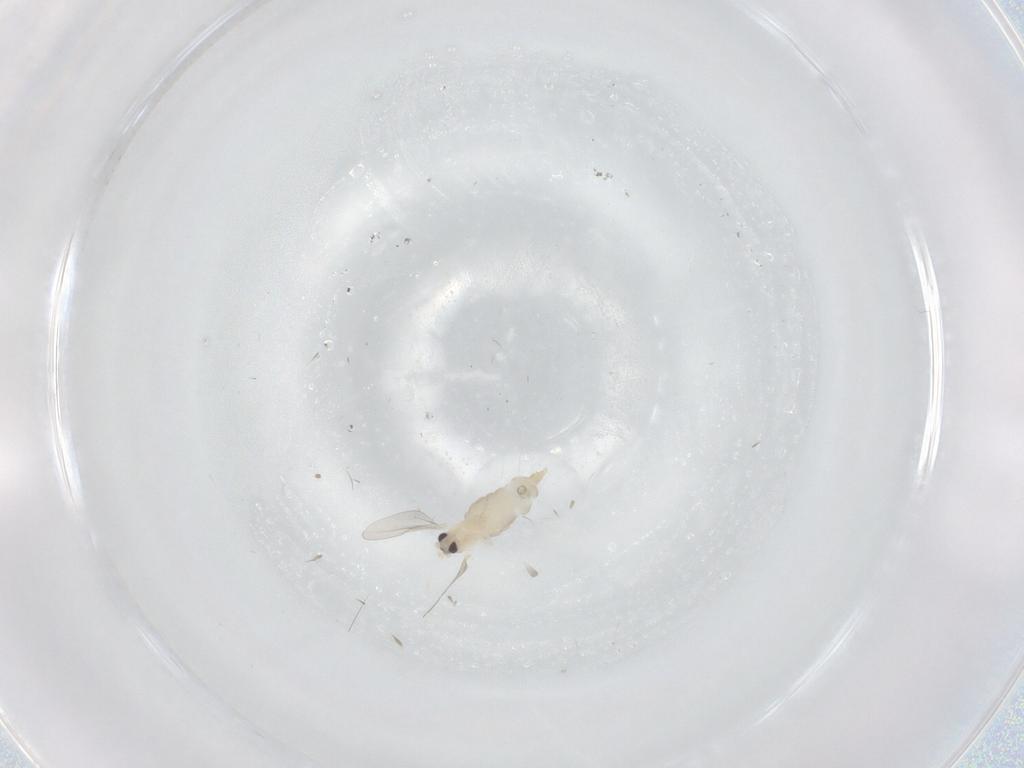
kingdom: Animalia
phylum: Arthropoda
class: Insecta
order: Diptera
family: Cecidomyiidae
